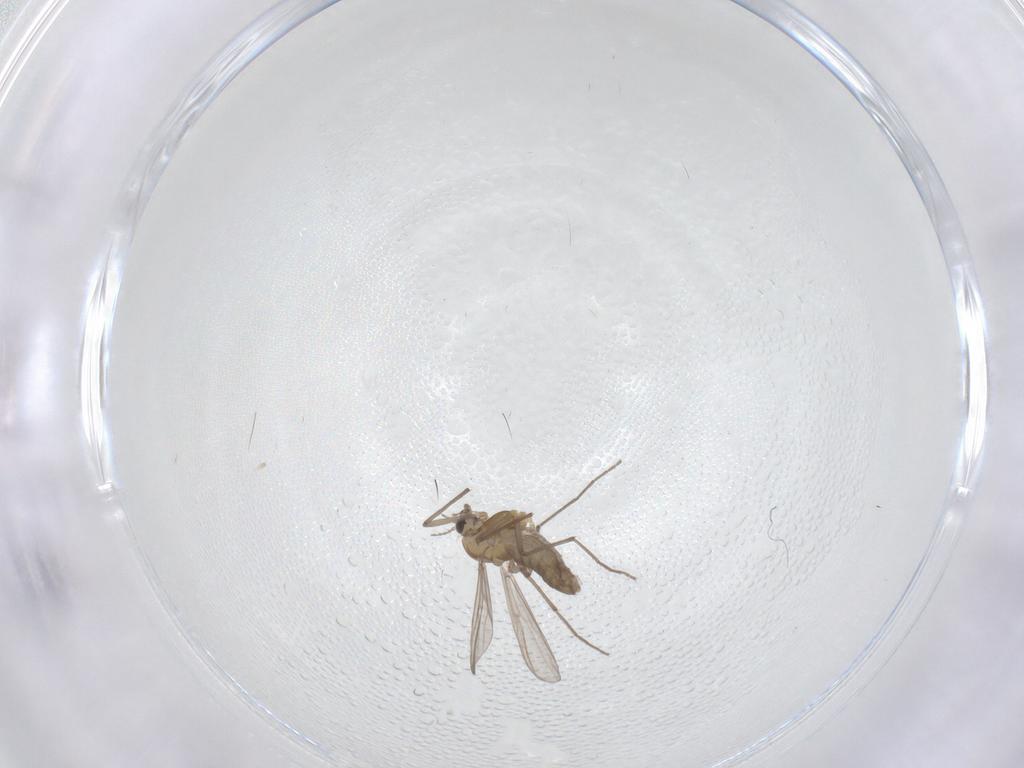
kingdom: Animalia
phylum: Arthropoda
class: Insecta
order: Diptera
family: Chironomidae
